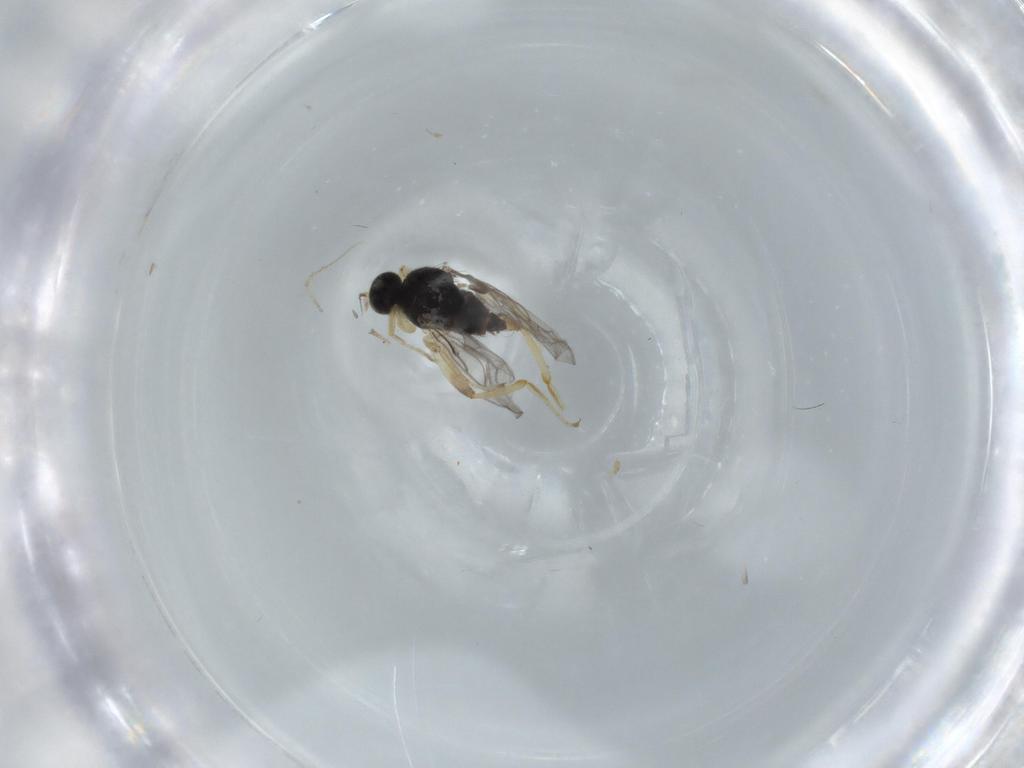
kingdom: Animalia
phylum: Arthropoda
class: Insecta
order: Diptera
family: Hybotidae
